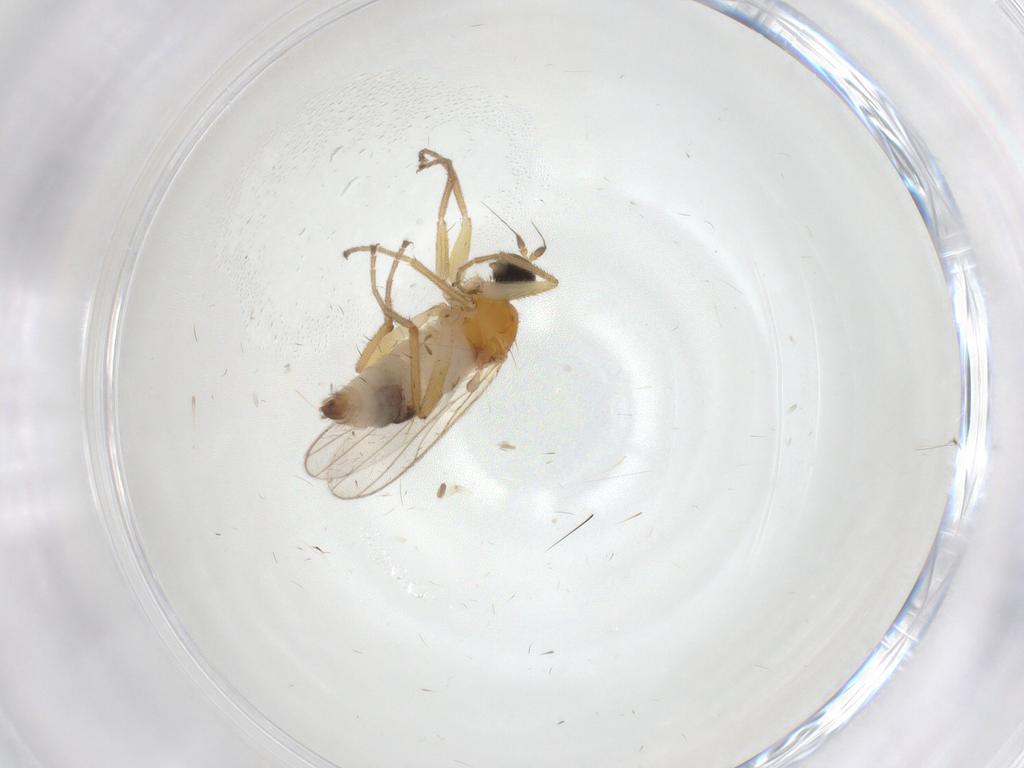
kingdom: Animalia
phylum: Arthropoda
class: Insecta
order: Diptera
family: Hybotidae
